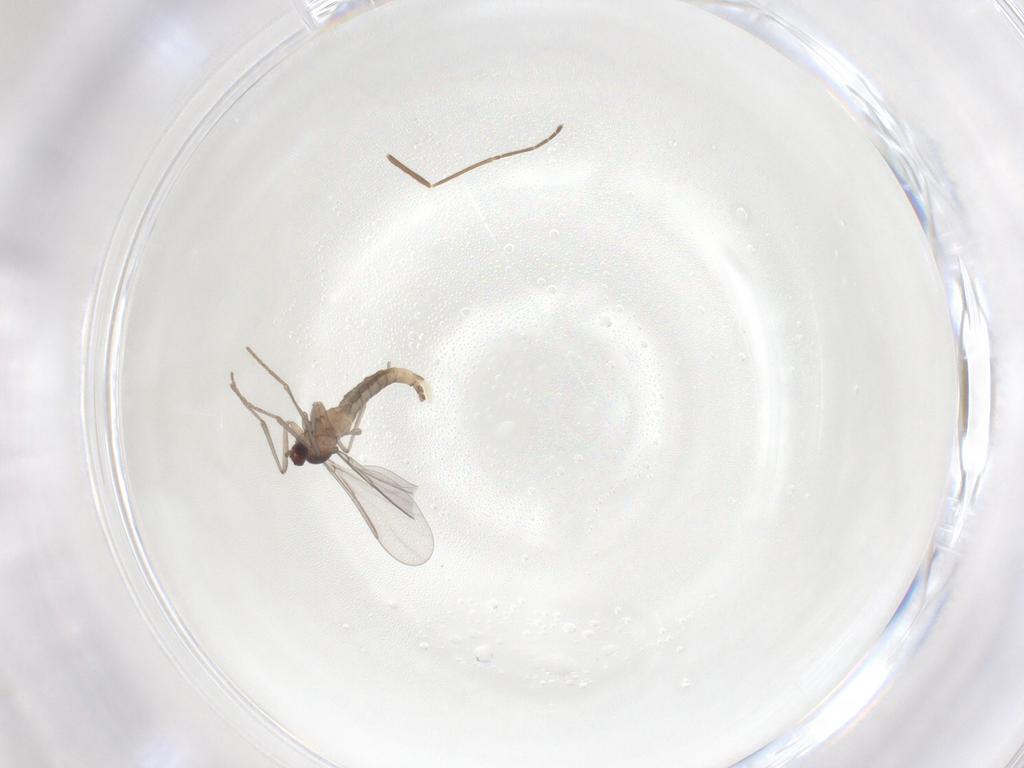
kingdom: Animalia
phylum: Arthropoda
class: Insecta
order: Diptera
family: Cecidomyiidae
